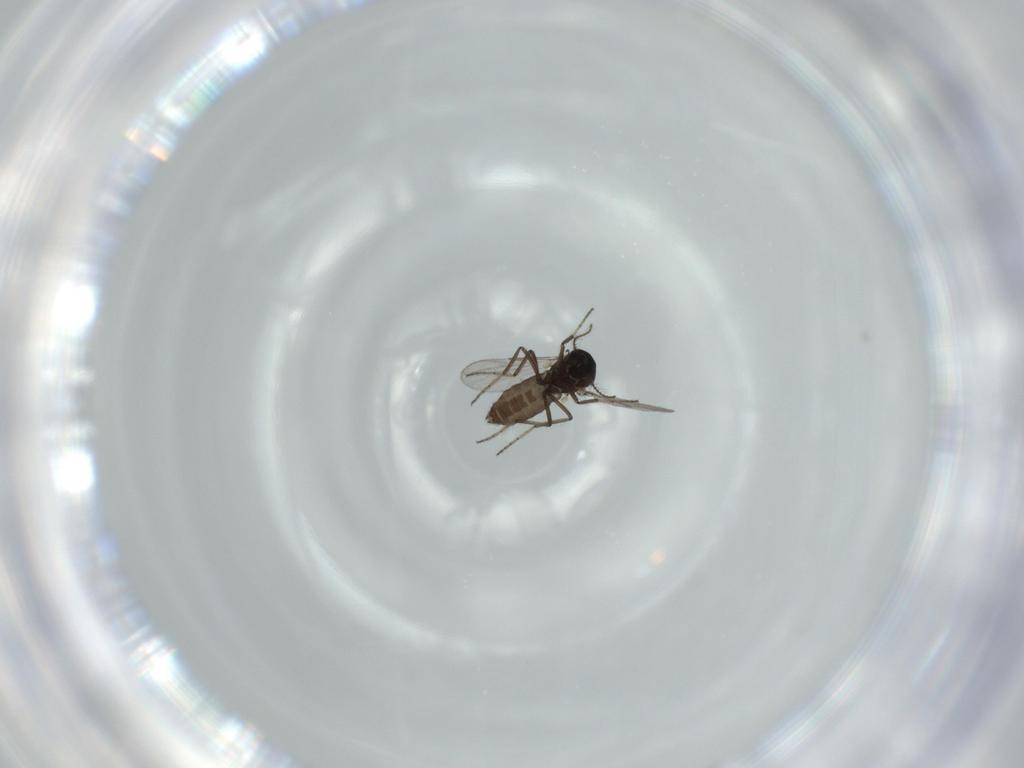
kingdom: Animalia
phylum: Arthropoda
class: Insecta
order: Diptera
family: Ceratopogonidae
